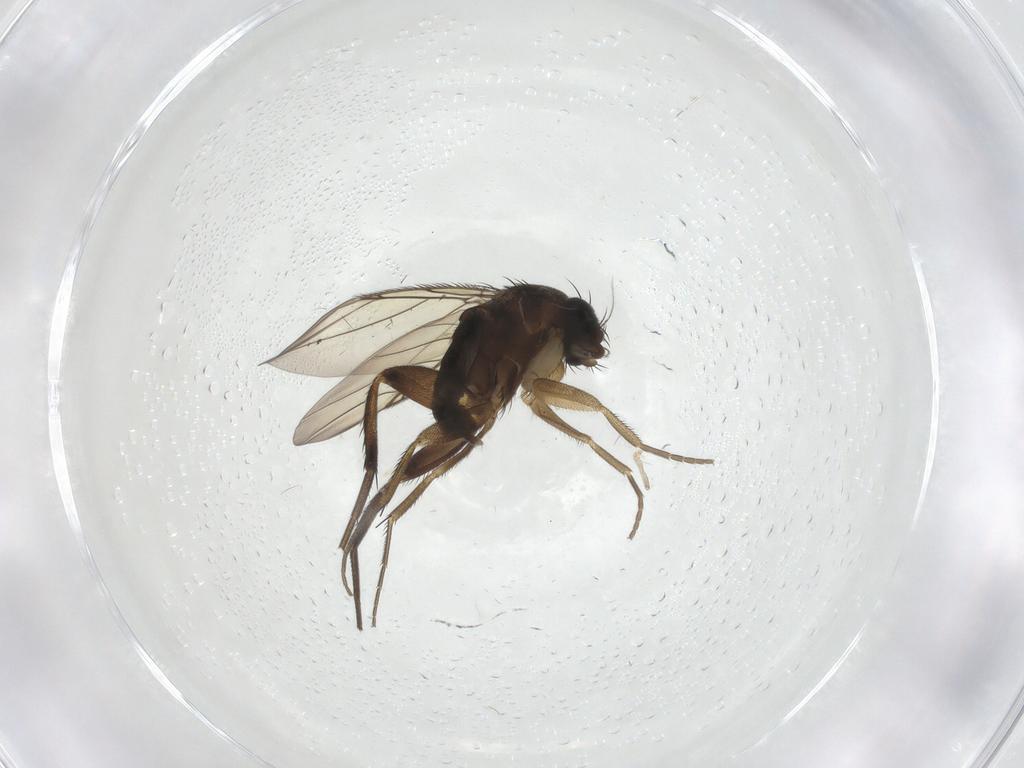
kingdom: Animalia
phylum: Arthropoda
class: Insecta
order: Diptera
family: Phoridae
